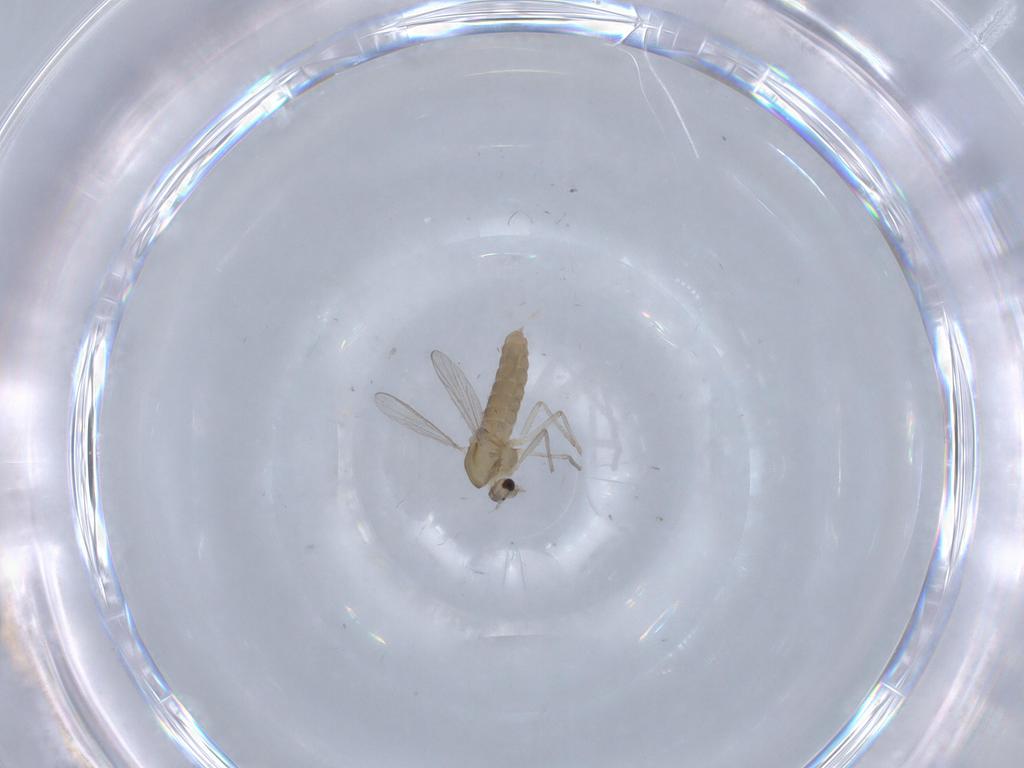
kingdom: Animalia
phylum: Arthropoda
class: Insecta
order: Diptera
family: Chironomidae
